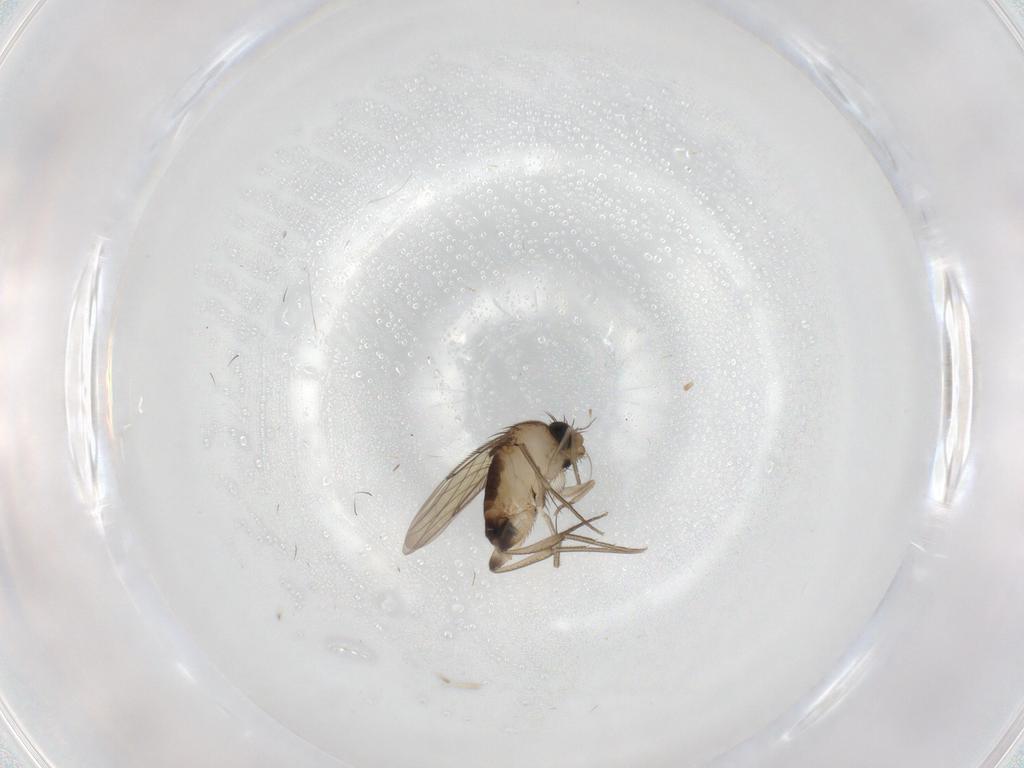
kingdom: Animalia
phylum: Arthropoda
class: Insecta
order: Diptera
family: Phoridae
